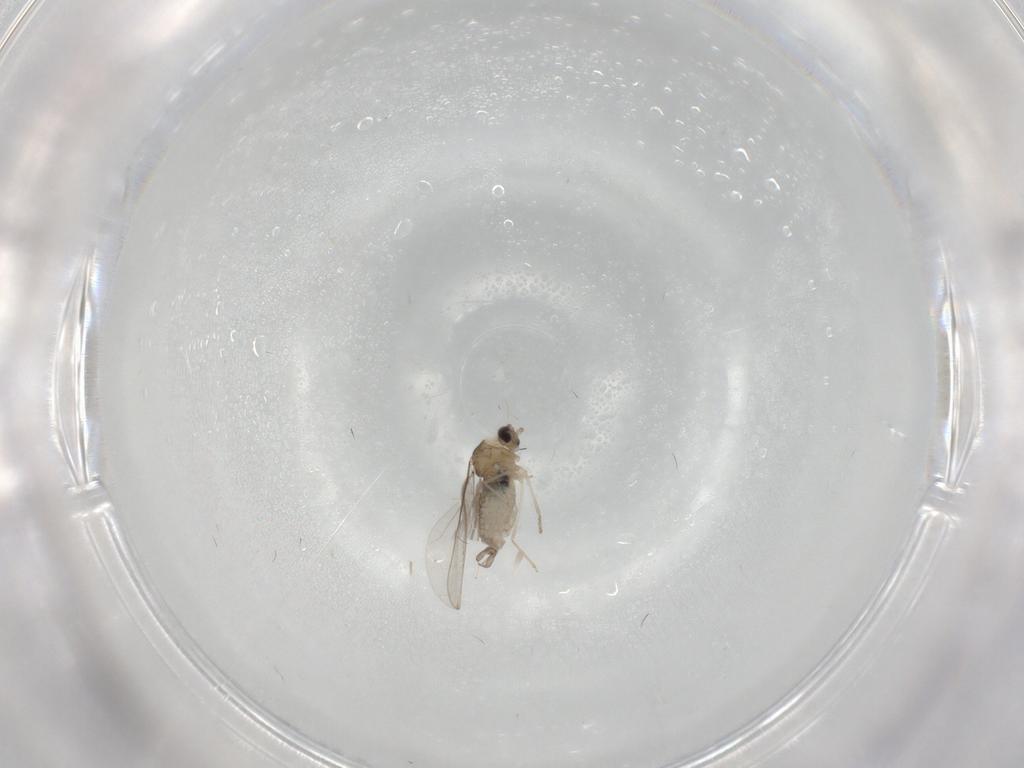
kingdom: Animalia
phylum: Arthropoda
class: Insecta
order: Diptera
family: Cecidomyiidae
